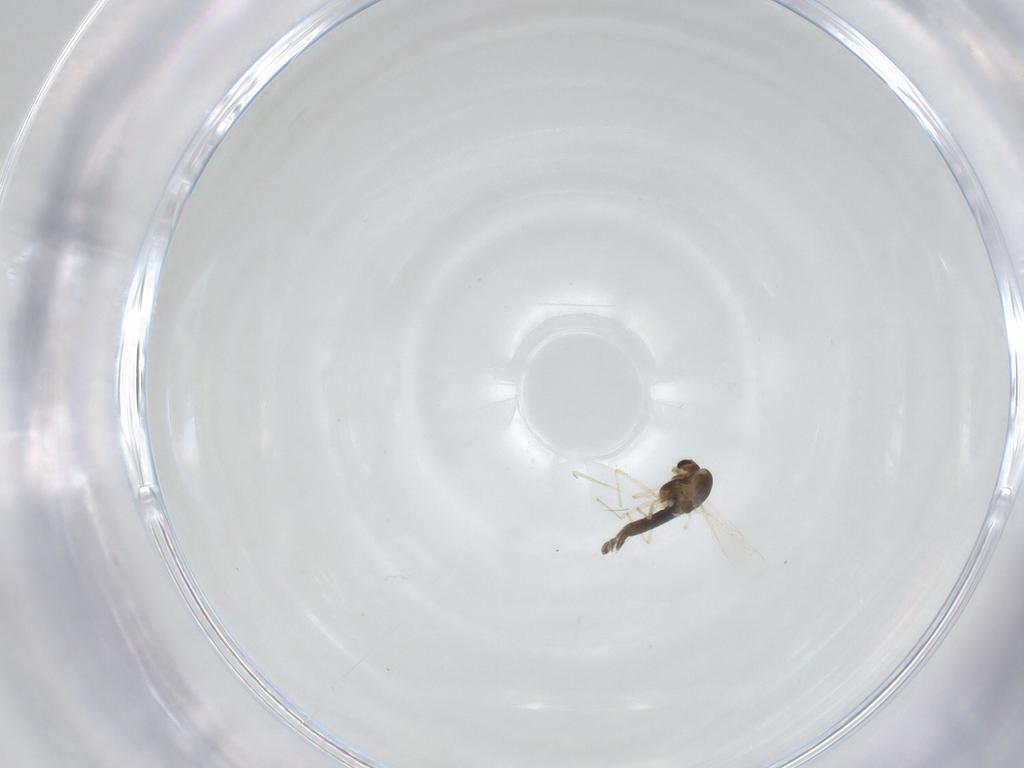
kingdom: Animalia
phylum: Arthropoda
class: Insecta
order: Diptera
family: Chironomidae
